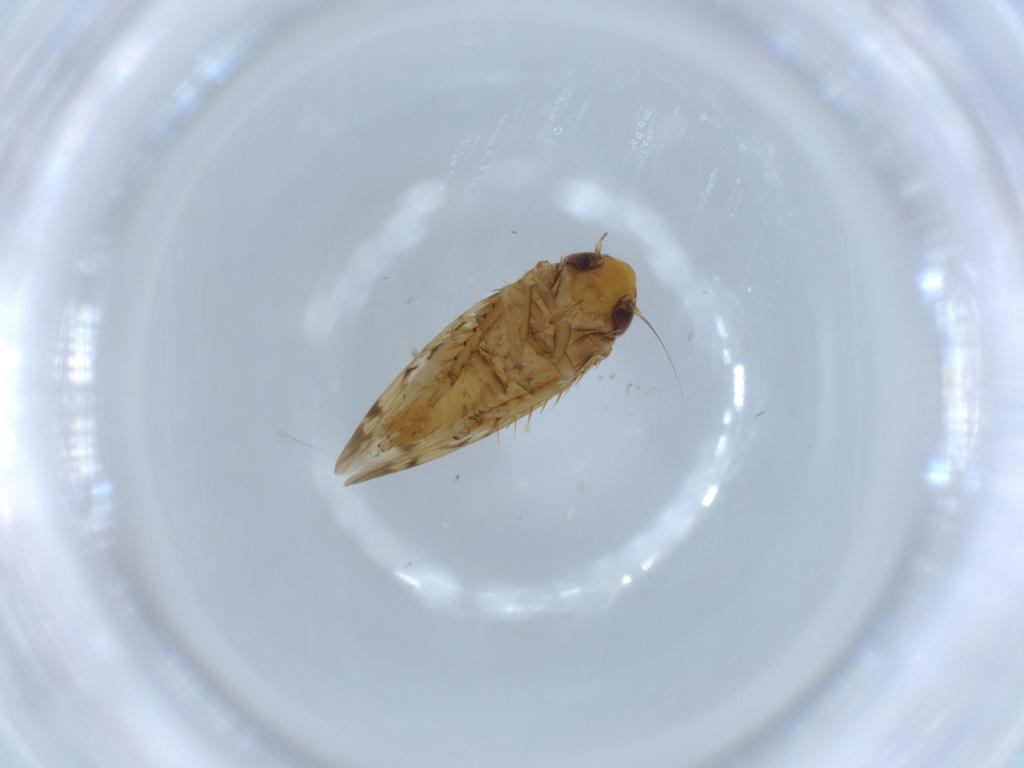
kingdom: Animalia
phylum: Arthropoda
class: Insecta
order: Hemiptera
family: Cicadellidae
